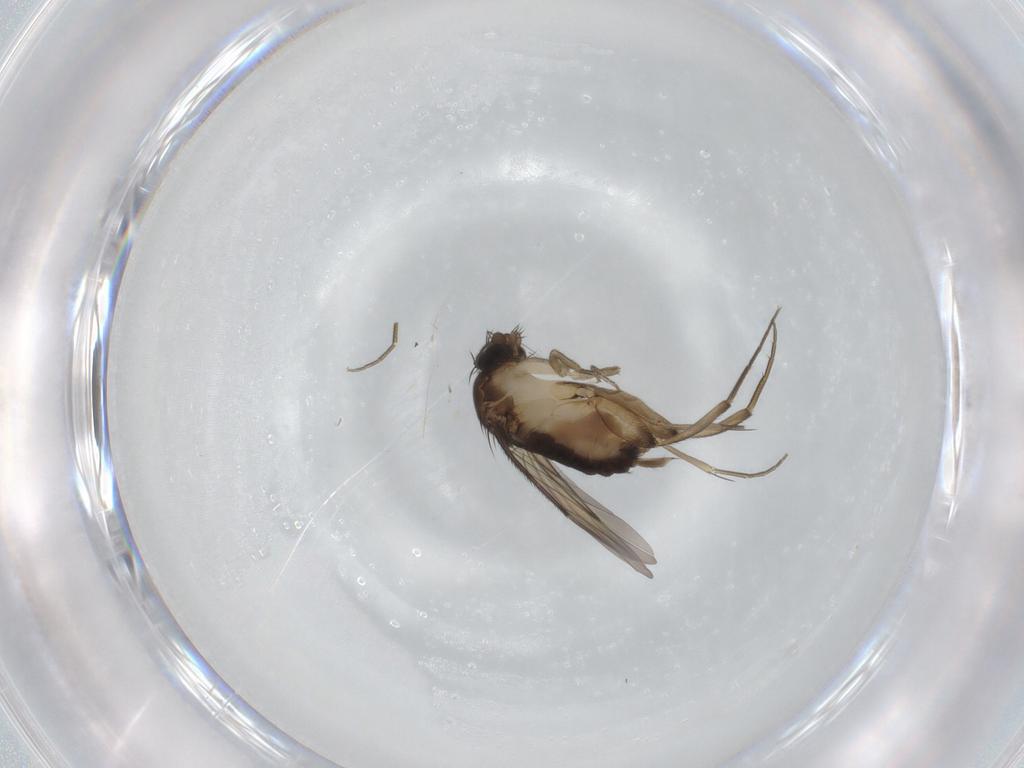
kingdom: Animalia
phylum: Arthropoda
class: Insecta
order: Diptera
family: Phoridae
